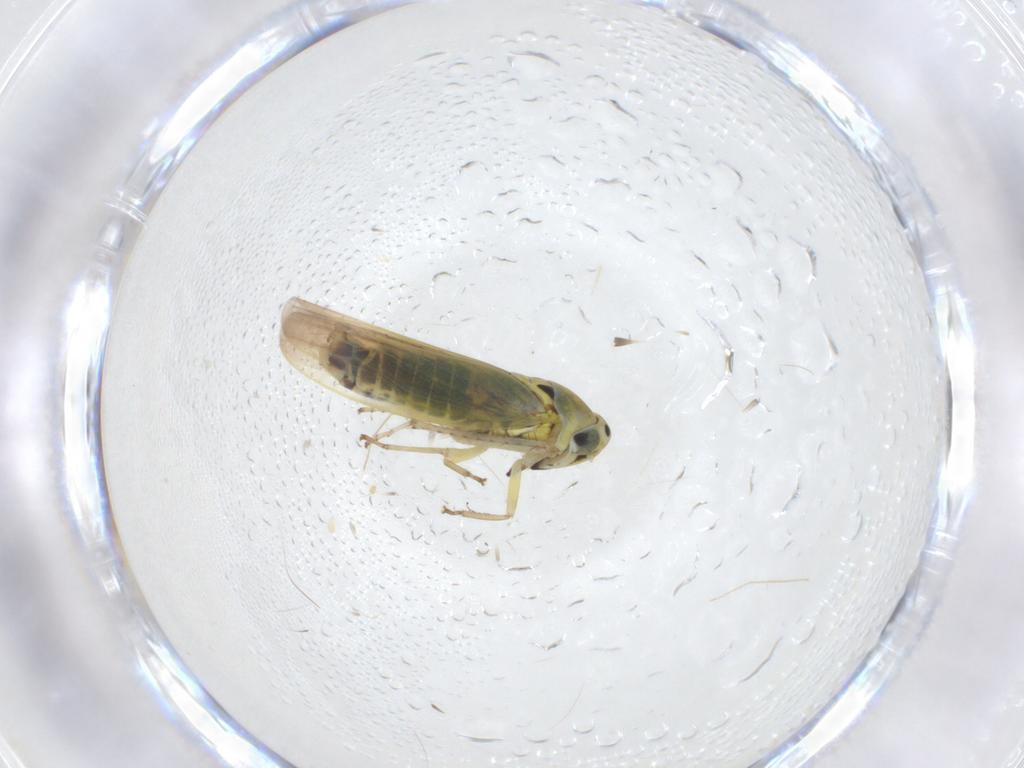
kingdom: Animalia
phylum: Arthropoda
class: Insecta
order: Hemiptera
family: Cicadellidae
